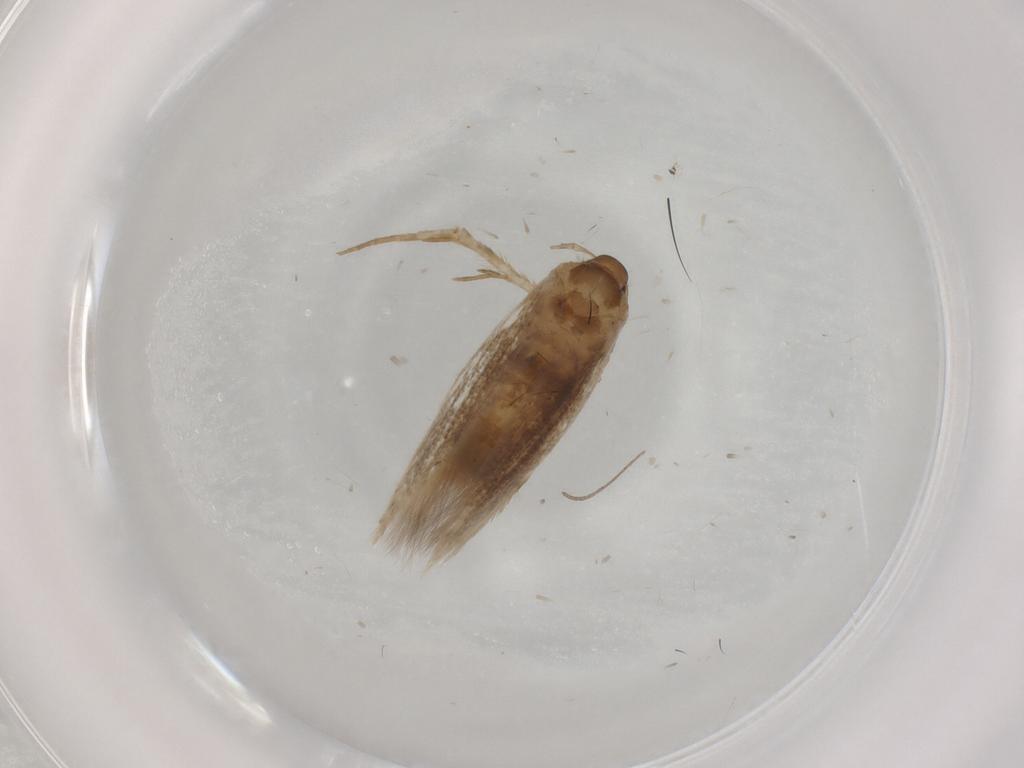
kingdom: Animalia
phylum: Arthropoda
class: Insecta
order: Lepidoptera
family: Cosmopterigidae
